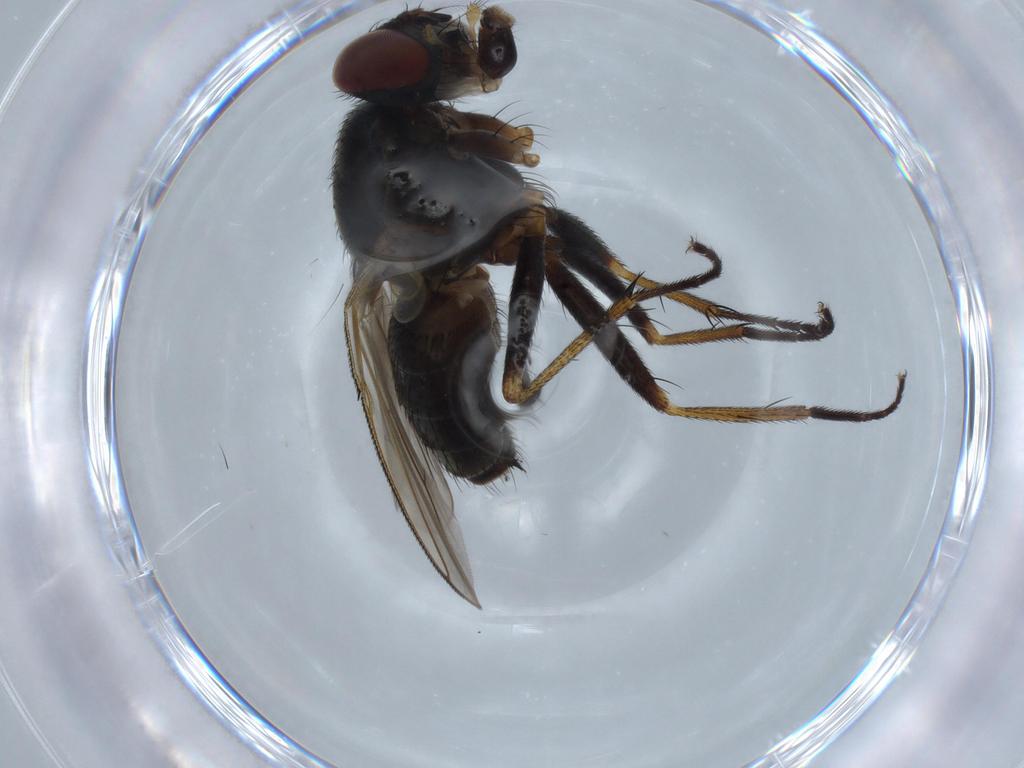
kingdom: Animalia
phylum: Arthropoda
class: Insecta
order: Diptera
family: Muscidae
